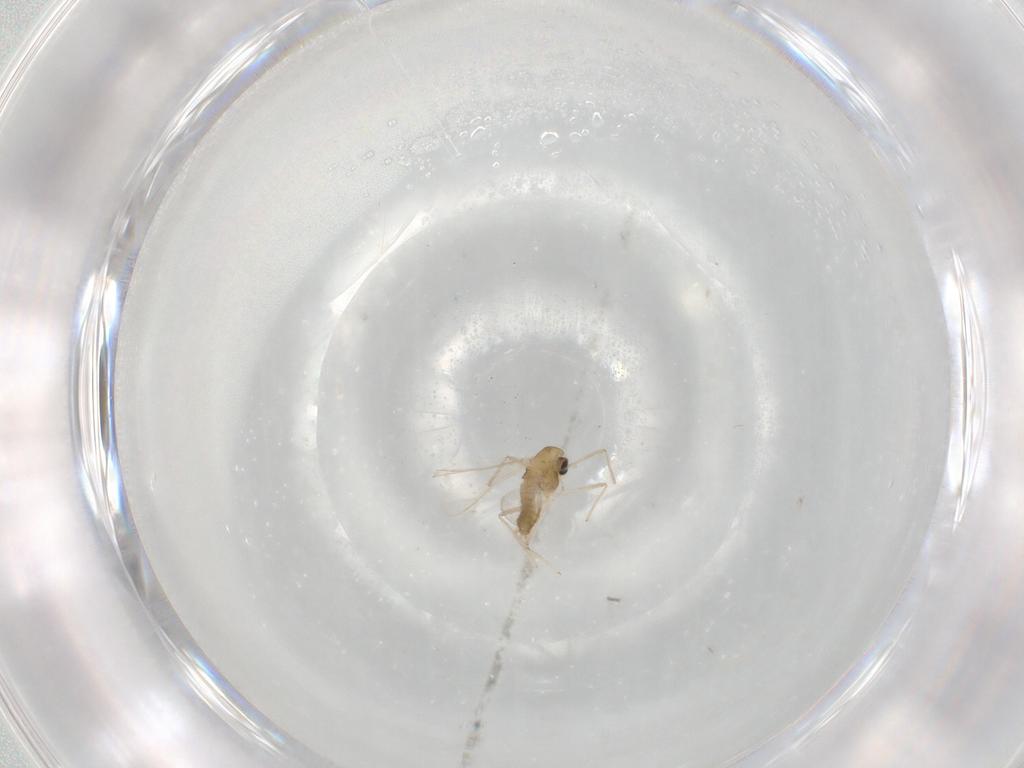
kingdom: Animalia
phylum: Arthropoda
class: Insecta
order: Diptera
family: Chironomidae
